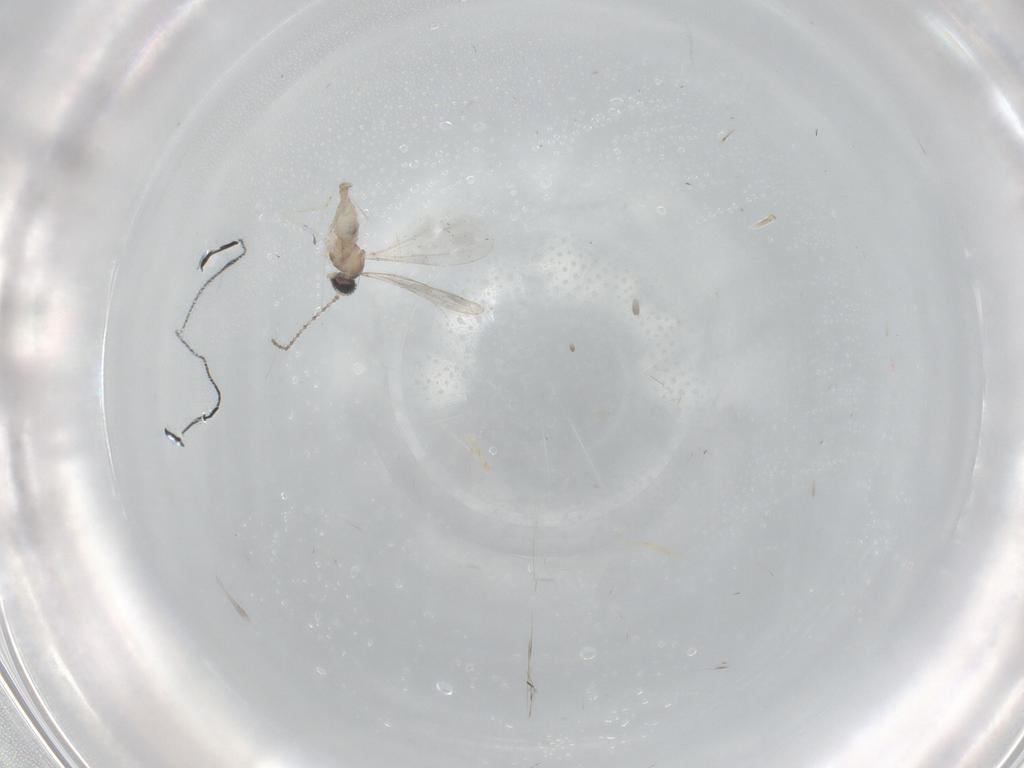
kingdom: Animalia
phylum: Arthropoda
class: Insecta
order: Diptera
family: Cecidomyiidae
